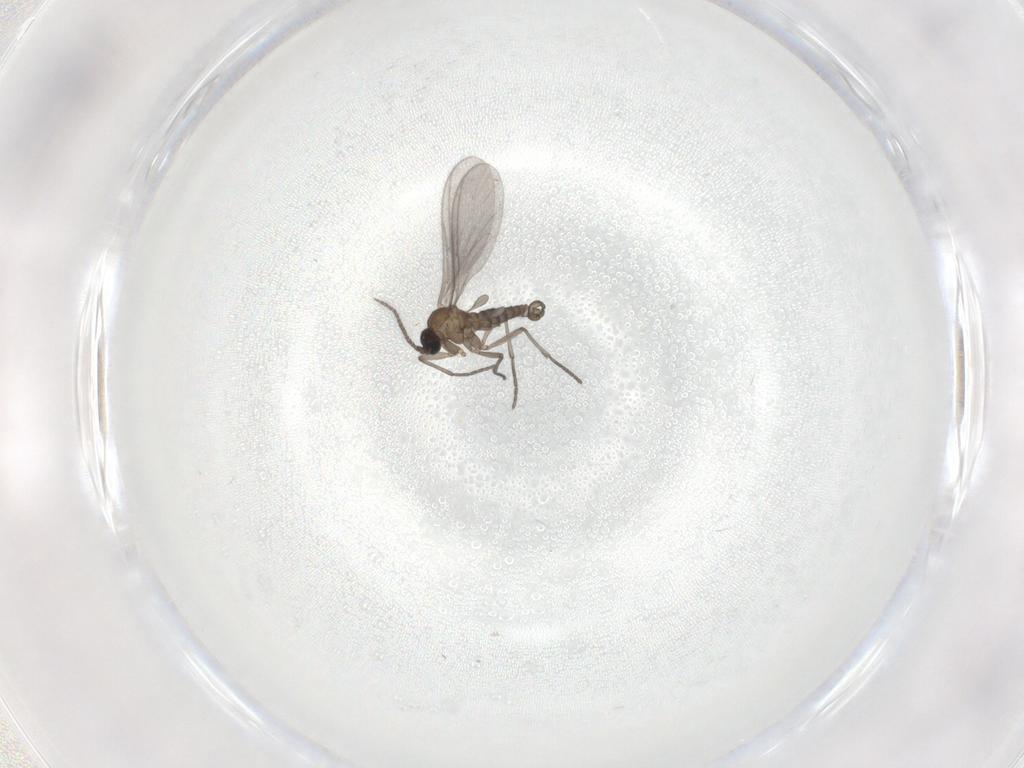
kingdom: Animalia
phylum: Arthropoda
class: Insecta
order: Diptera
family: Sciaridae
